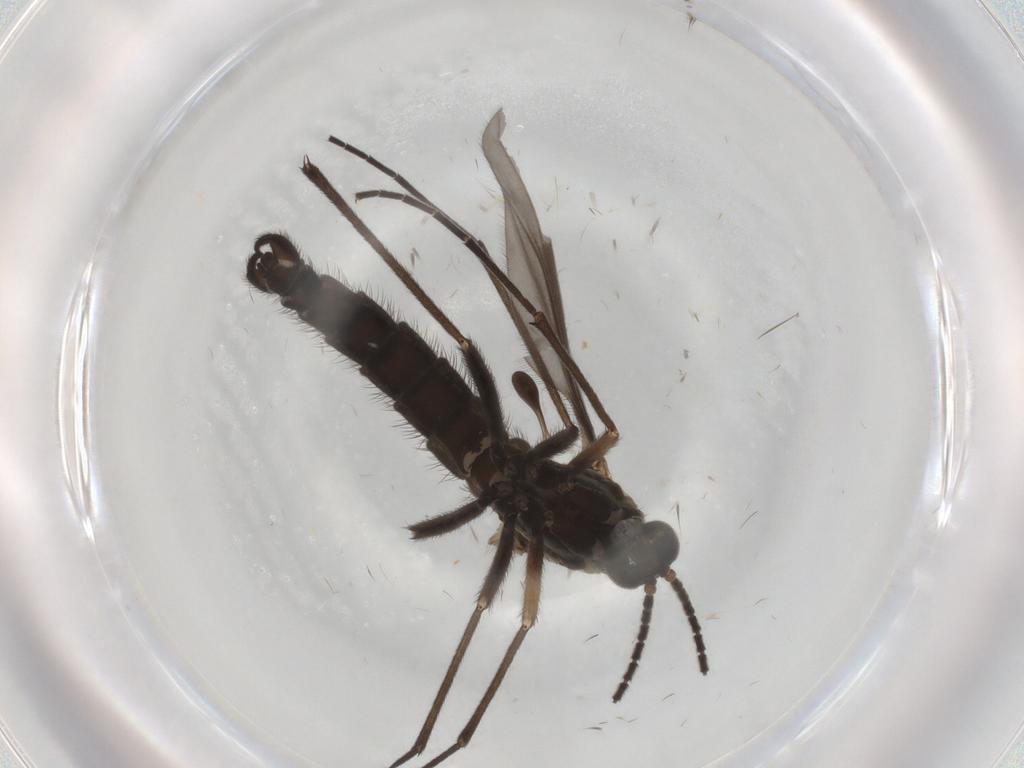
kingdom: Animalia
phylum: Arthropoda
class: Insecta
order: Diptera
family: Sciaridae
